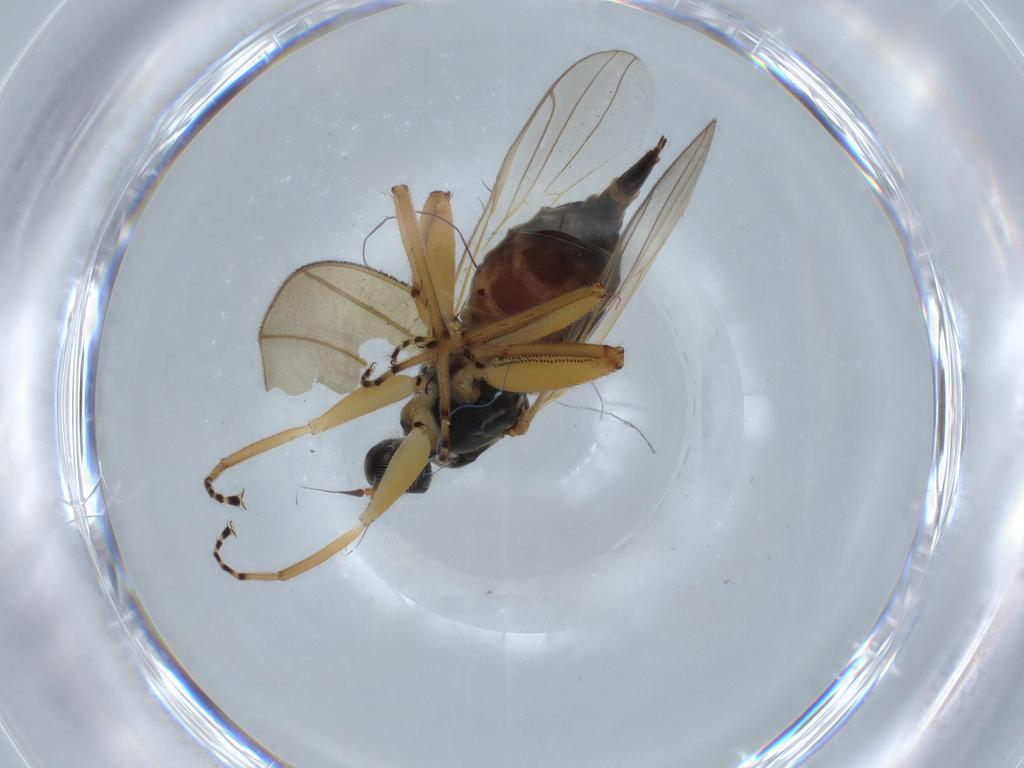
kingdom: Animalia
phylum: Arthropoda
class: Insecta
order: Diptera
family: Hybotidae
